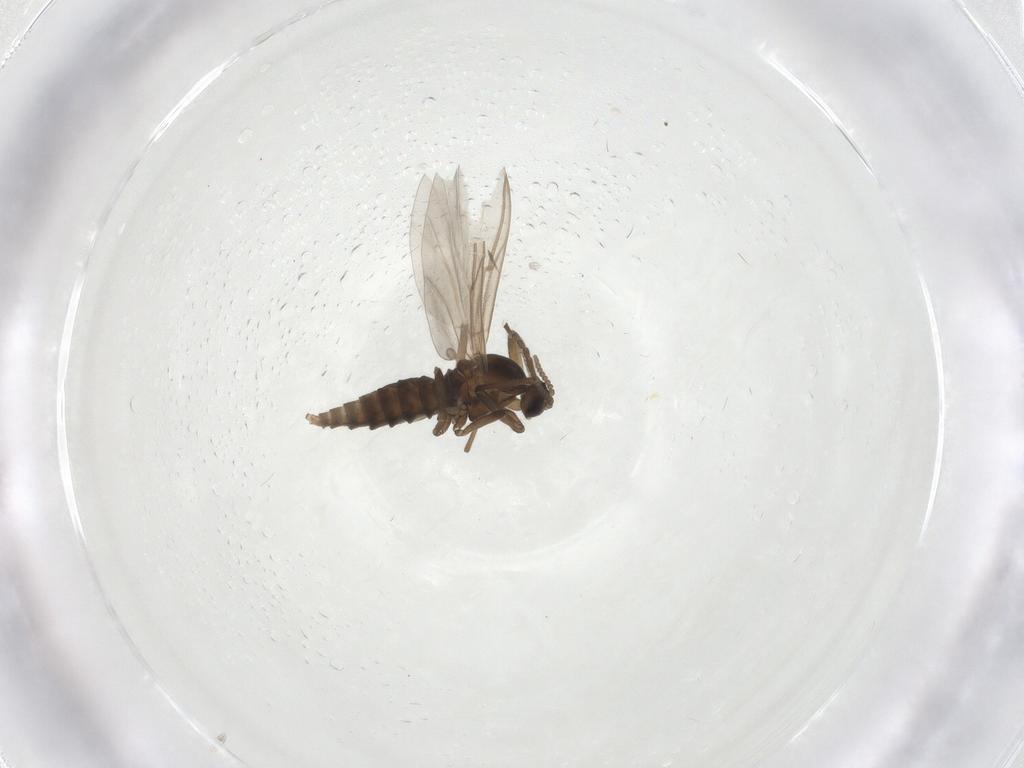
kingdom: Animalia
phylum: Arthropoda
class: Insecta
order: Diptera
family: Cecidomyiidae
